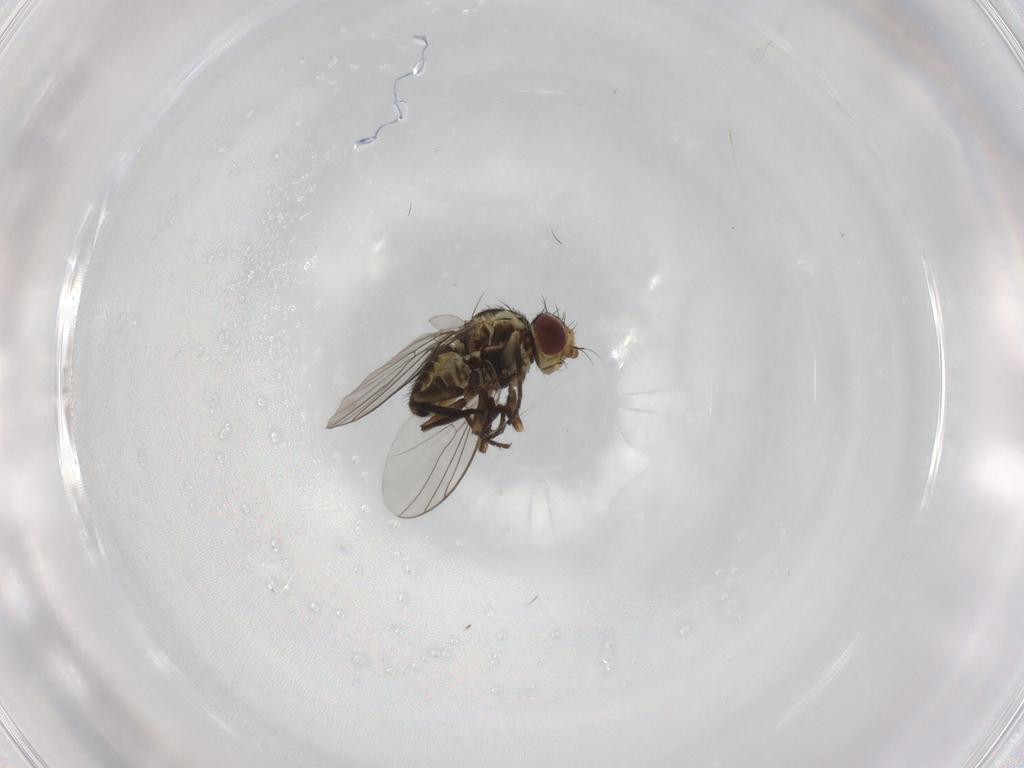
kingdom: Animalia
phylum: Arthropoda
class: Insecta
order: Diptera
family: Agromyzidae
